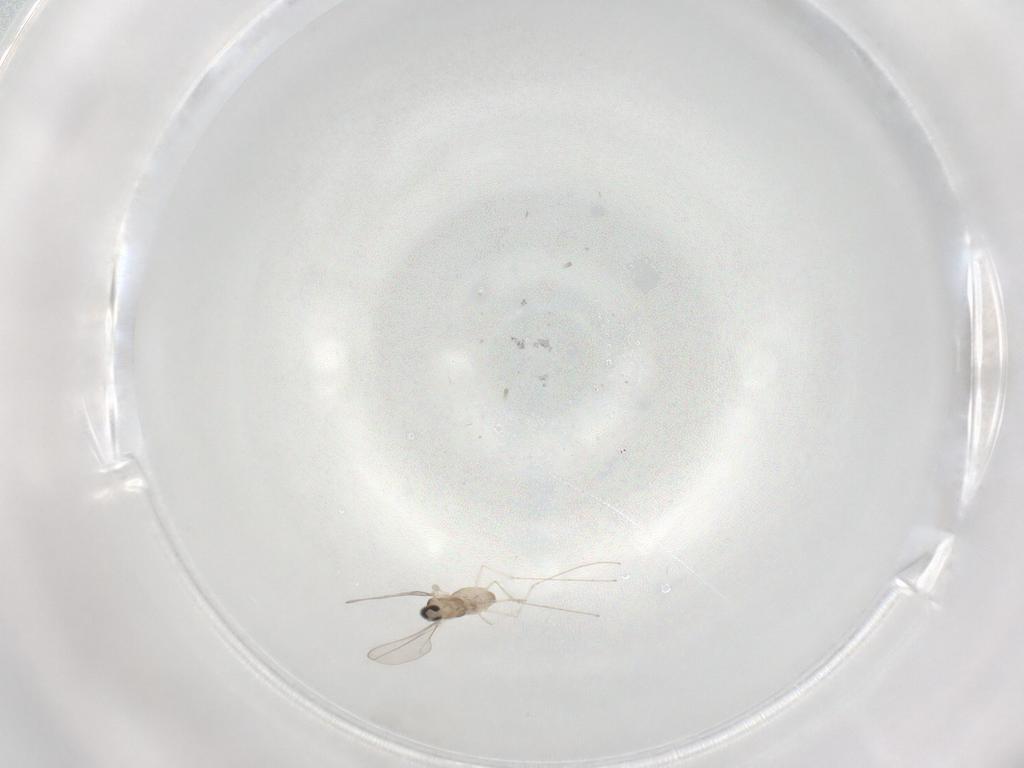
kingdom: Animalia
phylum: Arthropoda
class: Insecta
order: Diptera
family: Cecidomyiidae
